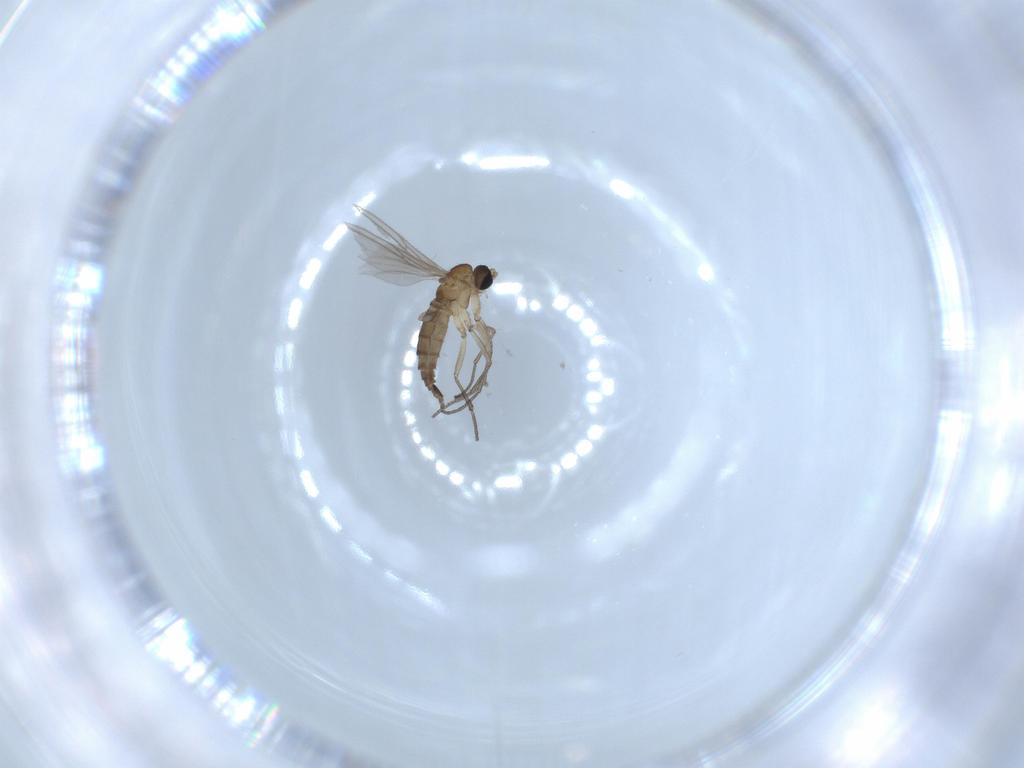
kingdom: Animalia
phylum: Arthropoda
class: Insecta
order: Diptera
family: Sciaridae
